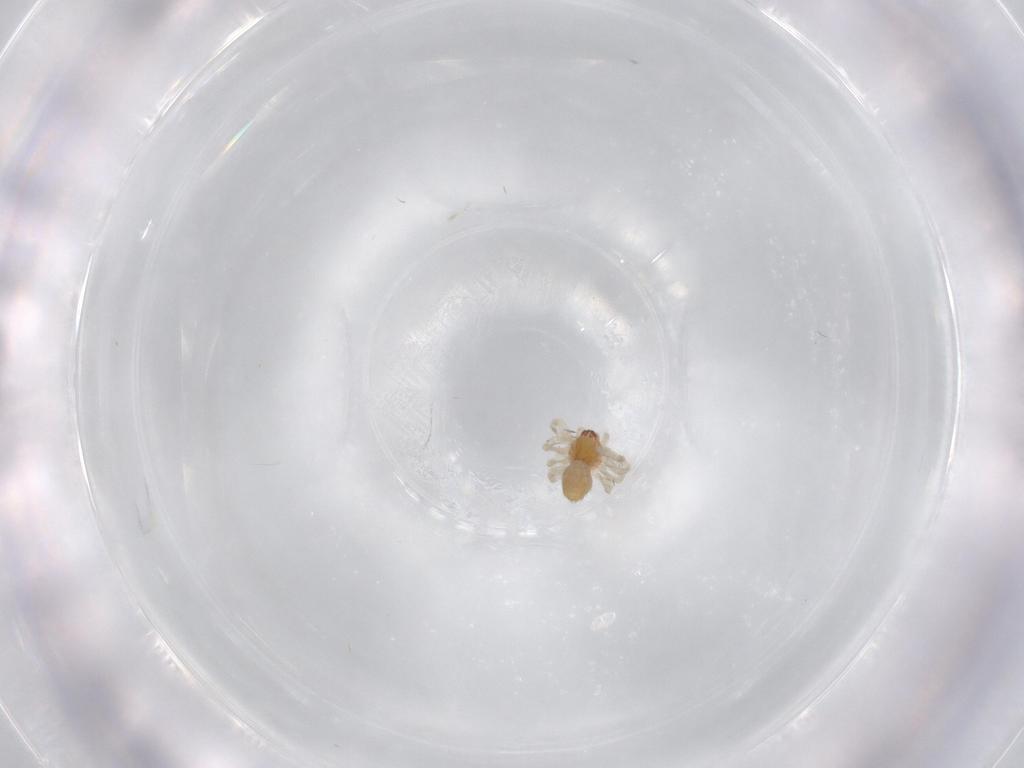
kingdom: Animalia
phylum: Arthropoda
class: Arachnida
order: Araneae
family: Dictynidae
